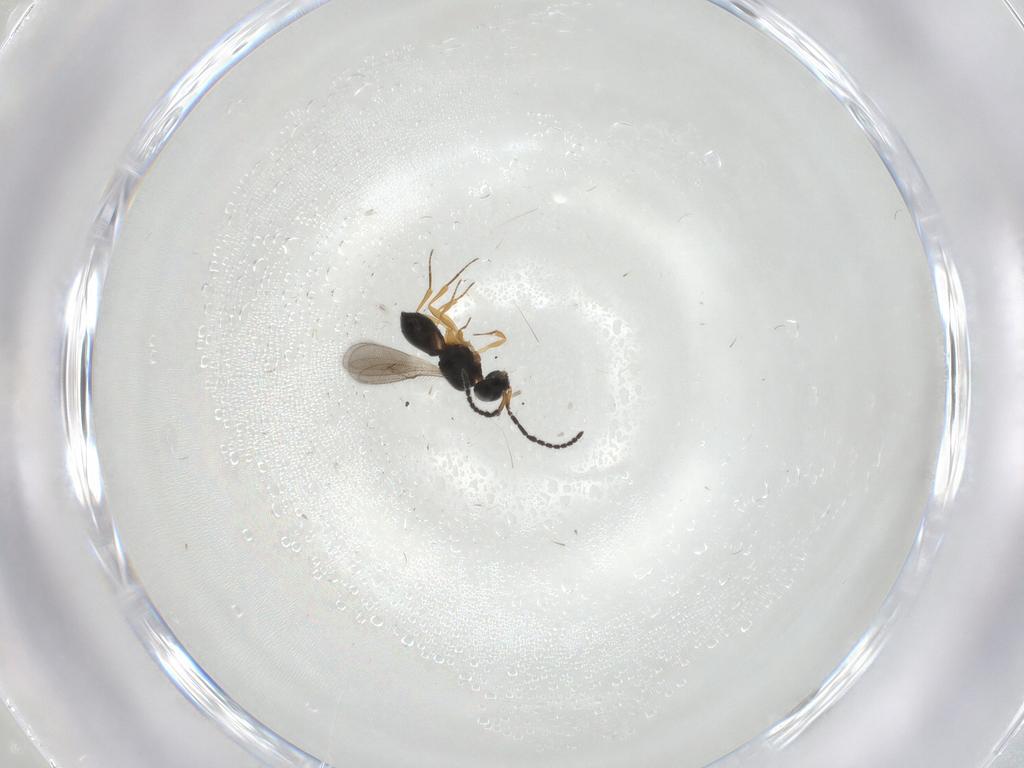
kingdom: Animalia
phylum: Arthropoda
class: Insecta
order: Hymenoptera
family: Scelionidae
